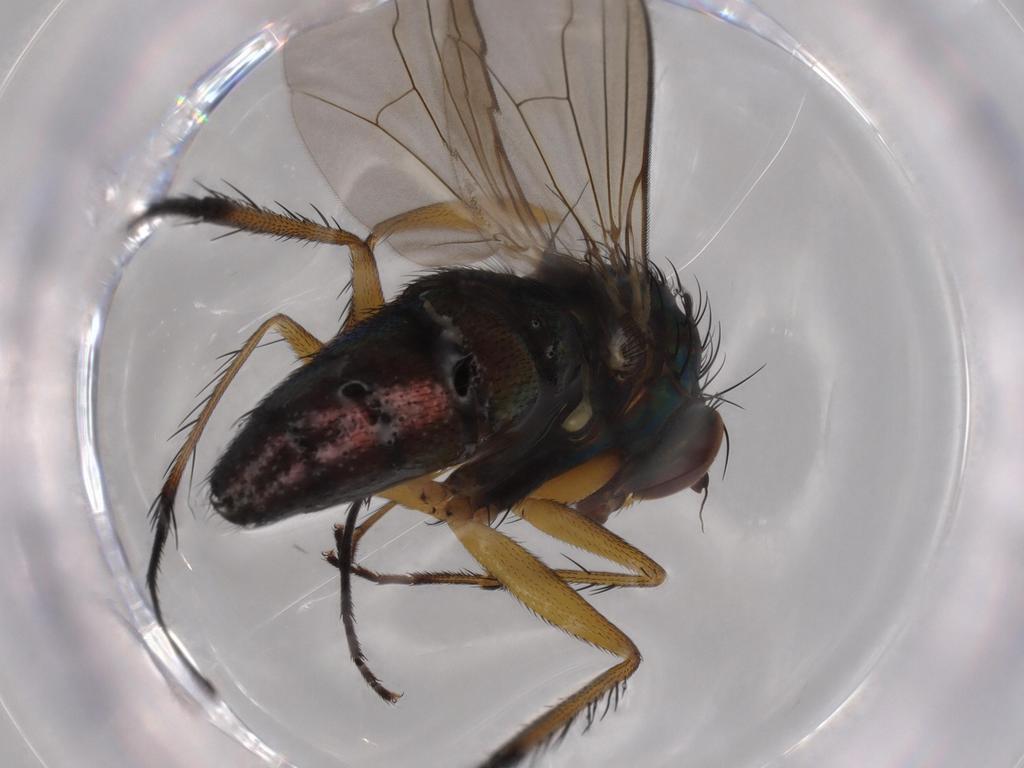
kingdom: Animalia
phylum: Arthropoda
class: Insecta
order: Diptera
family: Dolichopodidae
